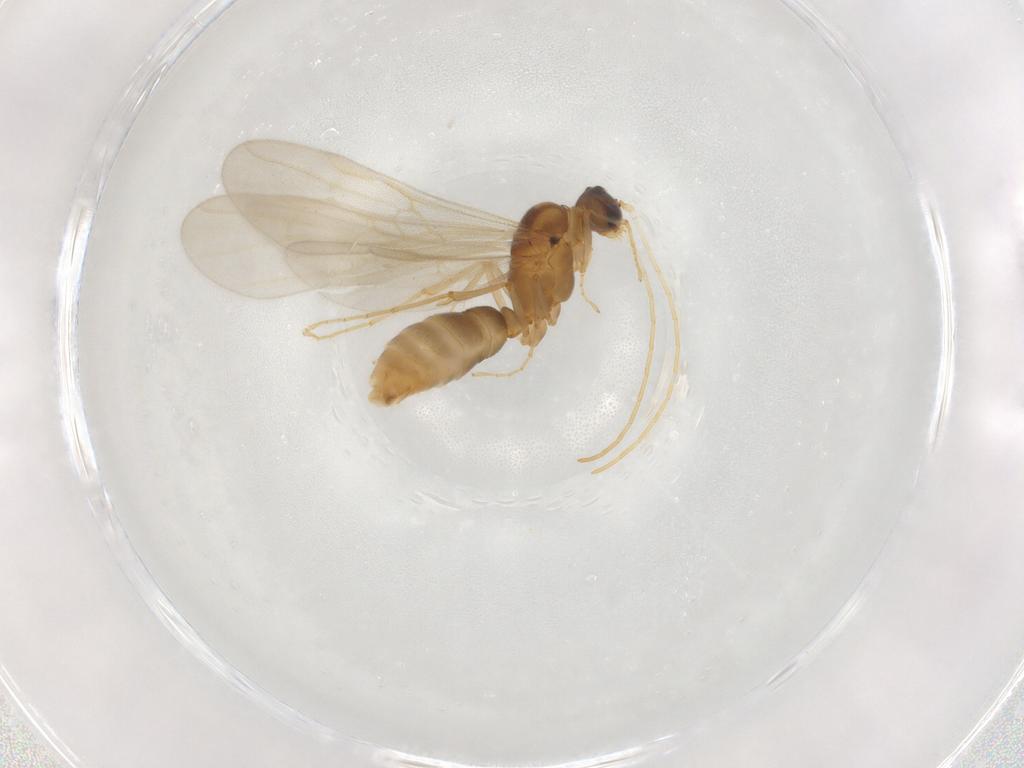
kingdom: Animalia
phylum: Arthropoda
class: Insecta
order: Hymenoptera
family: Formicidae
